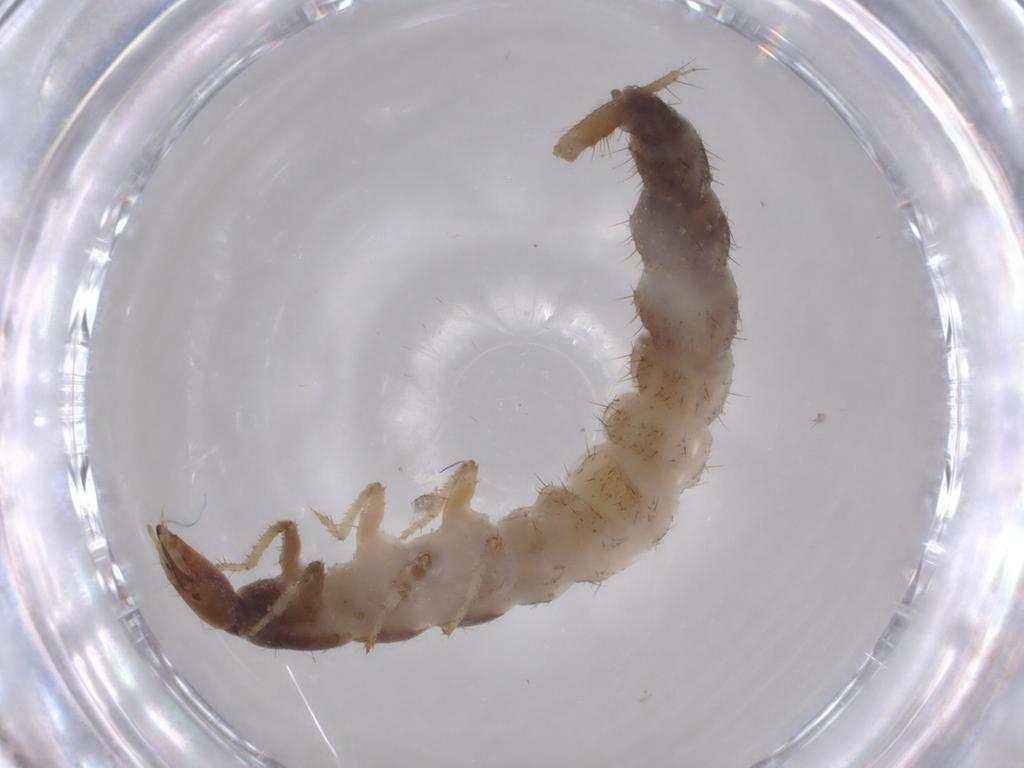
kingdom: Animalia
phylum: Arthropoda
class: Insecta
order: Coleoptera
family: Staphylinidae
